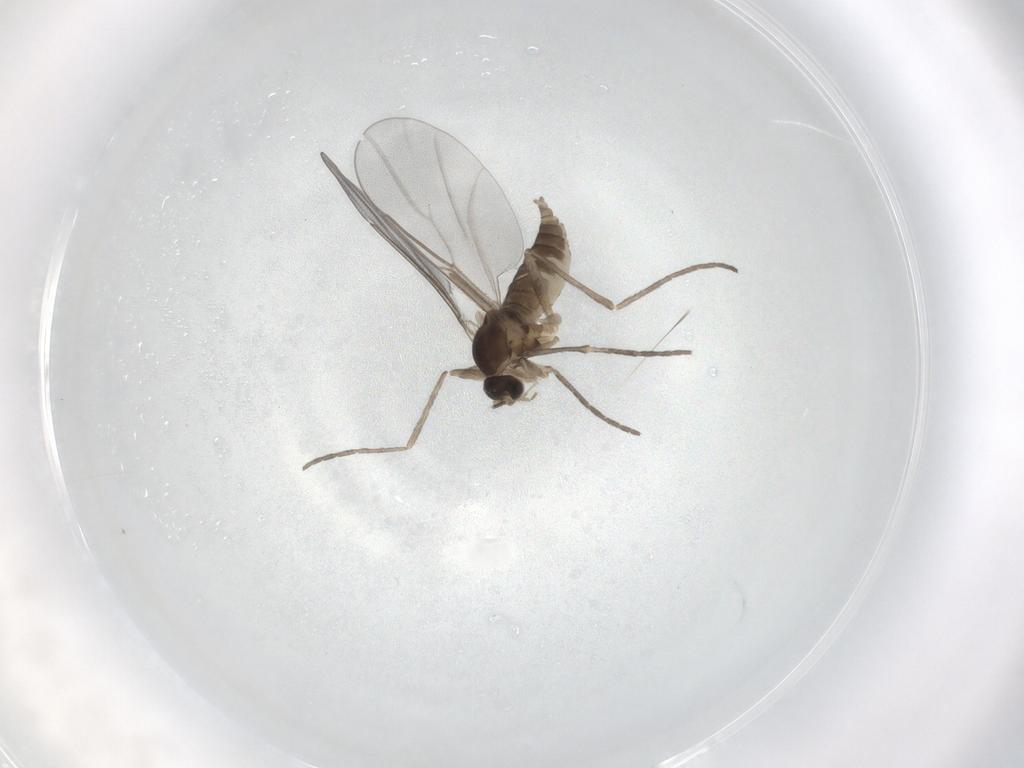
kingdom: Animalia
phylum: Arthropoda
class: Insecta
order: Diptera
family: Cecidomyiidae
